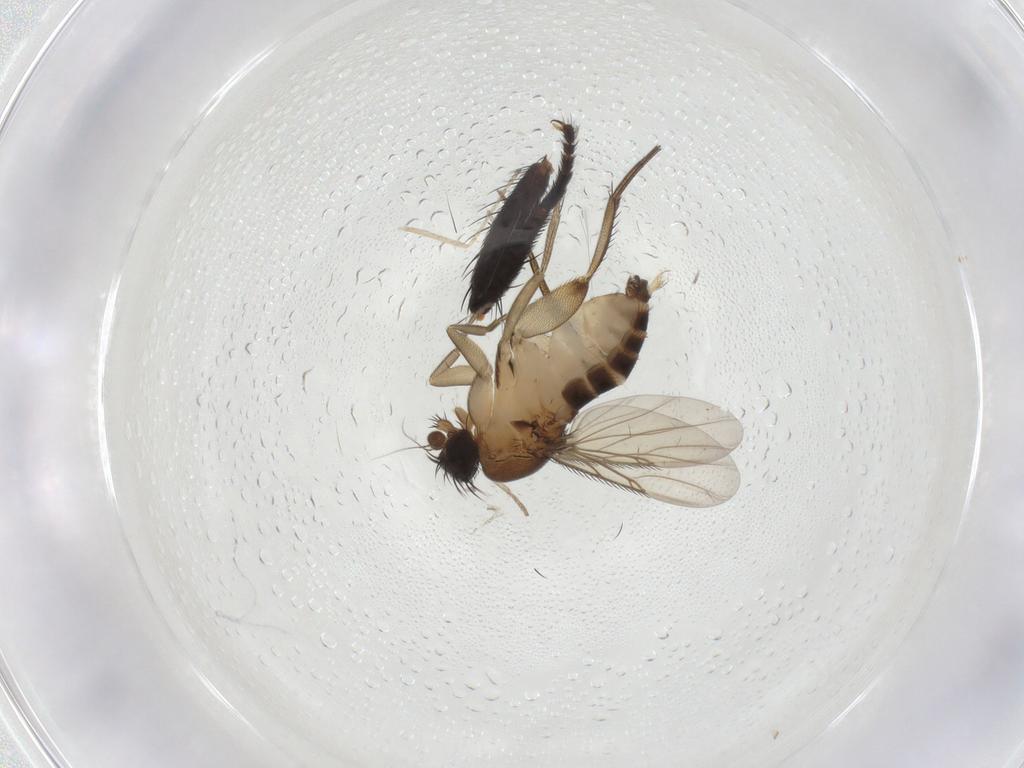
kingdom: Animalia
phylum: Arthropoda
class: Insecta
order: Diptera
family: Phoridae
